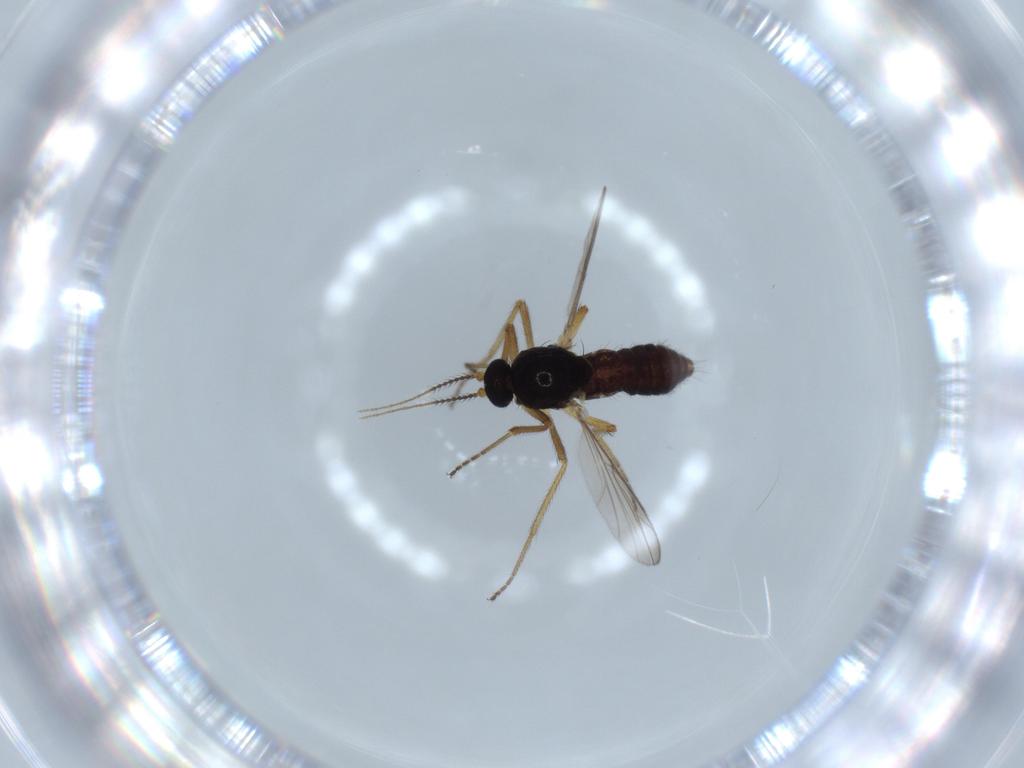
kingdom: Animalia
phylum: Arthropoda
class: Insecta
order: Diptera
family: Ceratopogonidae
